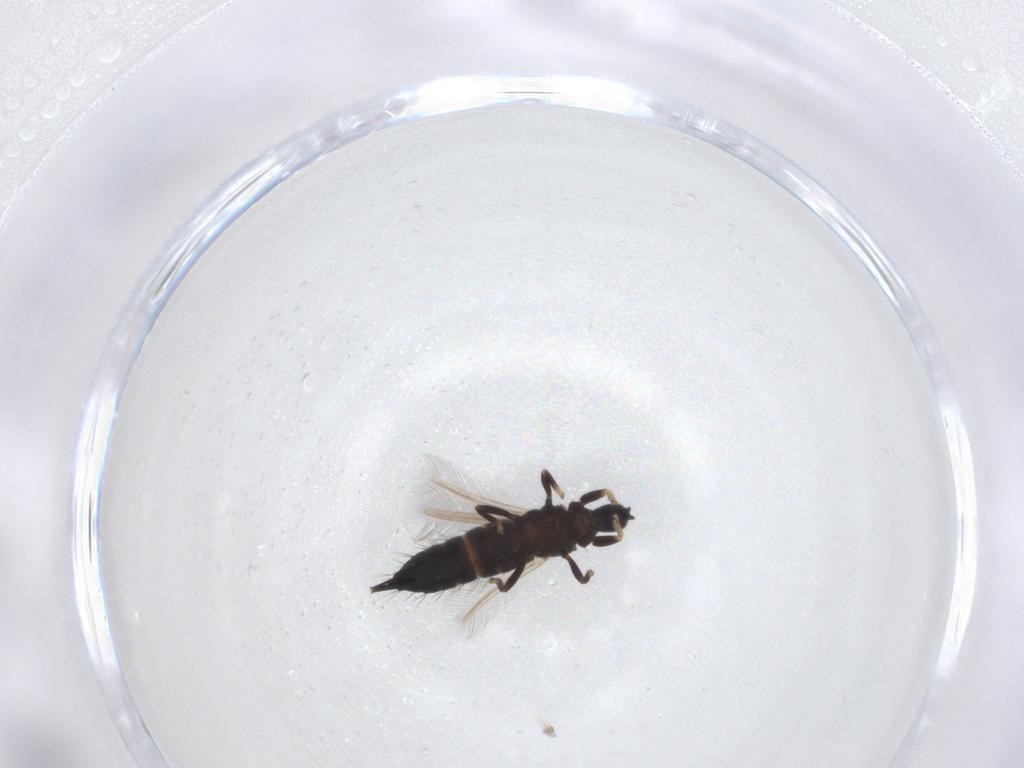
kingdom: Animalia
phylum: Arthropoda
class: Insecta
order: Thysanoptera
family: Phlaeothripidae
